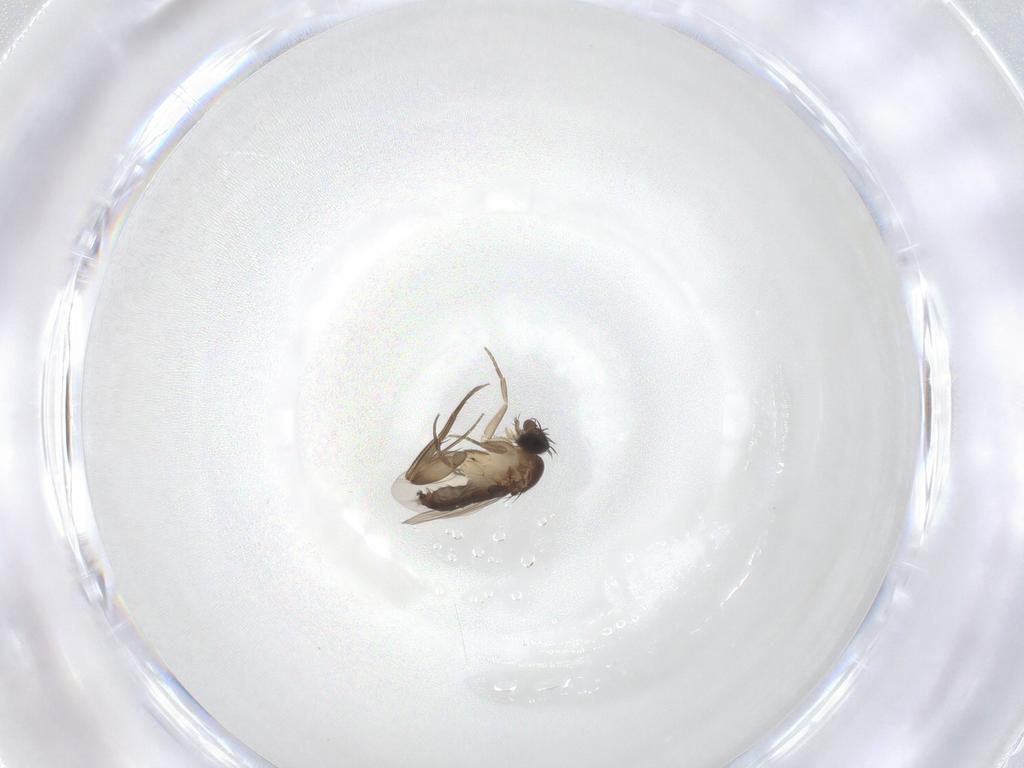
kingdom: Animalia
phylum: Arthropoda
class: Insecta
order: Diptera
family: Phoridae
